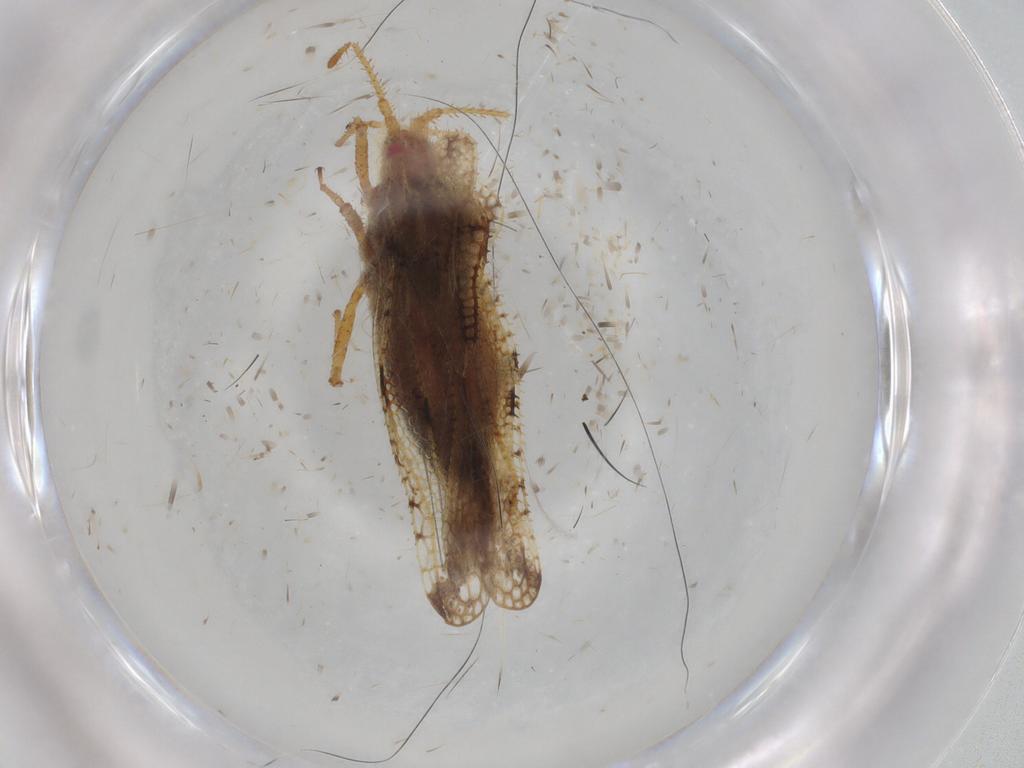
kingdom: Animalia
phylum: Arthropoda
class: Insecta
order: Hemiptera
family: Tingidae
